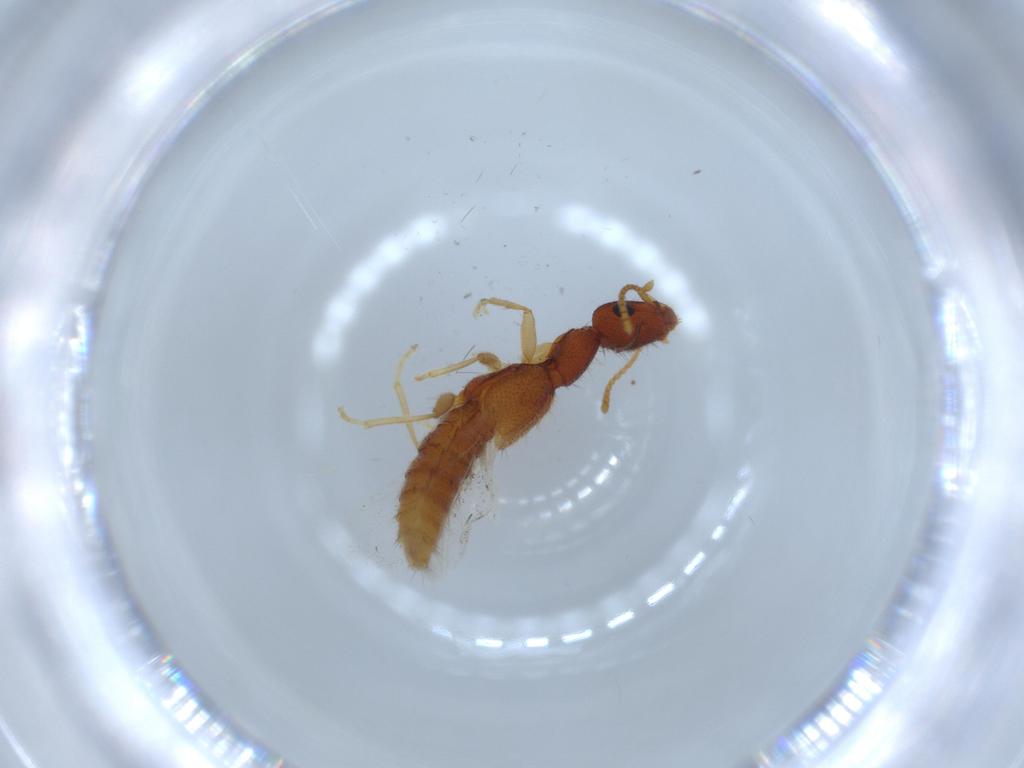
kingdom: Animalia
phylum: Arthropoda
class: Insecta
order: Coleoptera
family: Staphylinidae
